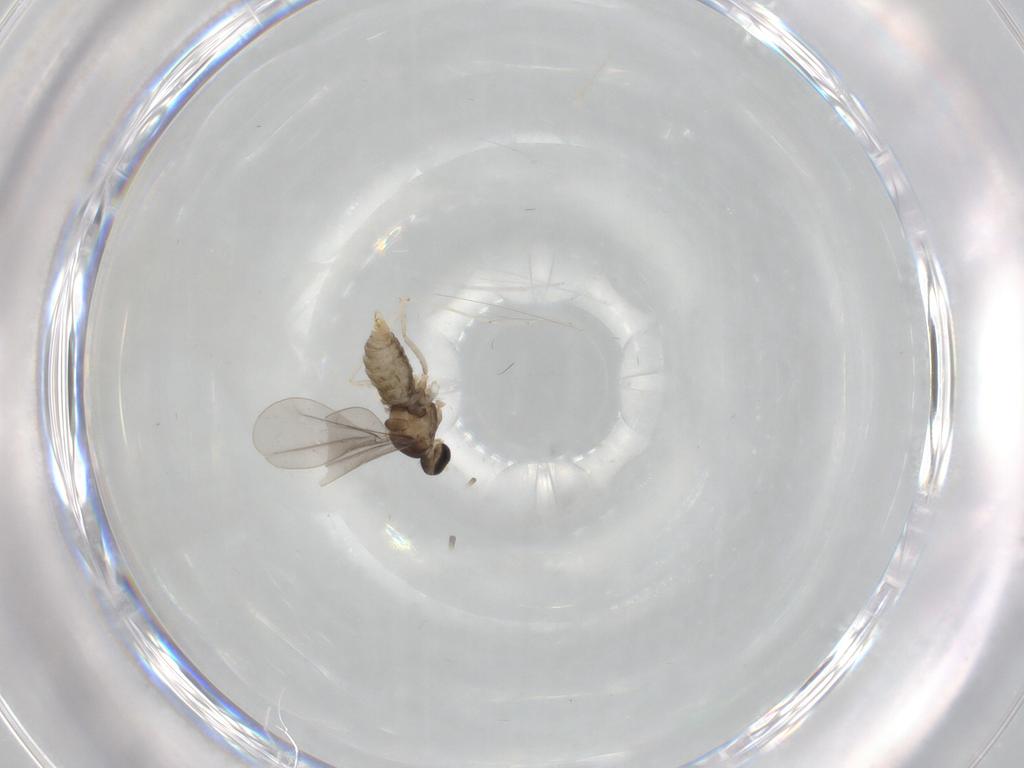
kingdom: Animalia
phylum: Arthropoda
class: Insecta
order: Diptera
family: Cecidomyiidae
